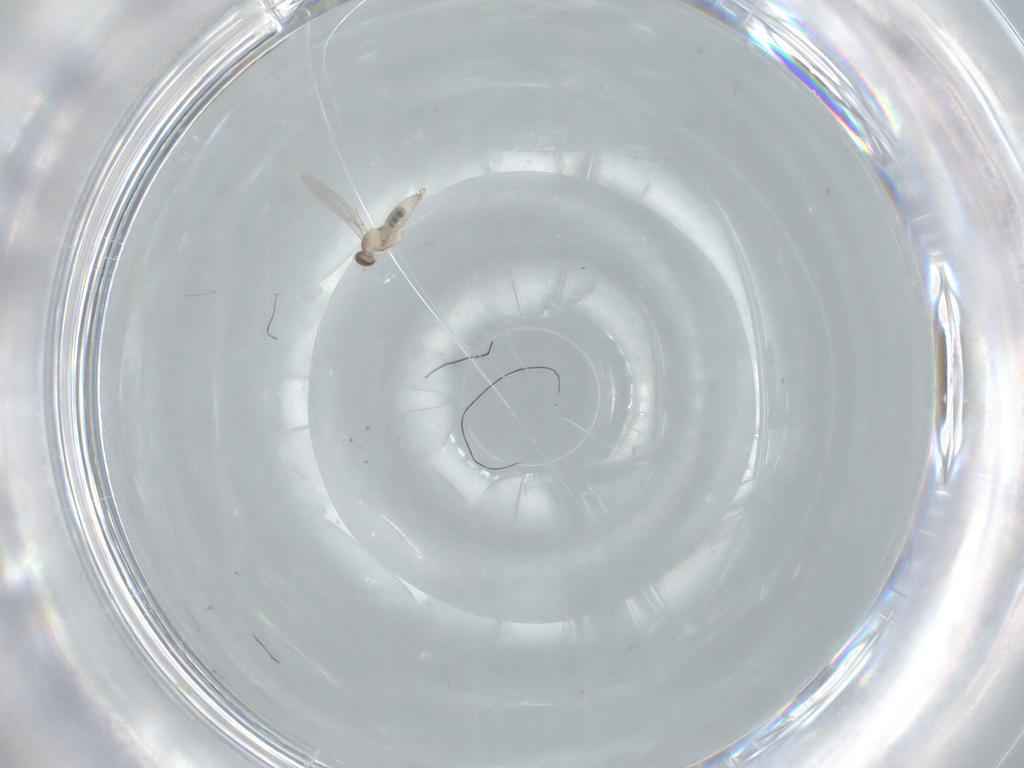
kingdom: Animalia
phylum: Arthropoda
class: Insecta
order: Diptera
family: Cecidomyiidae
